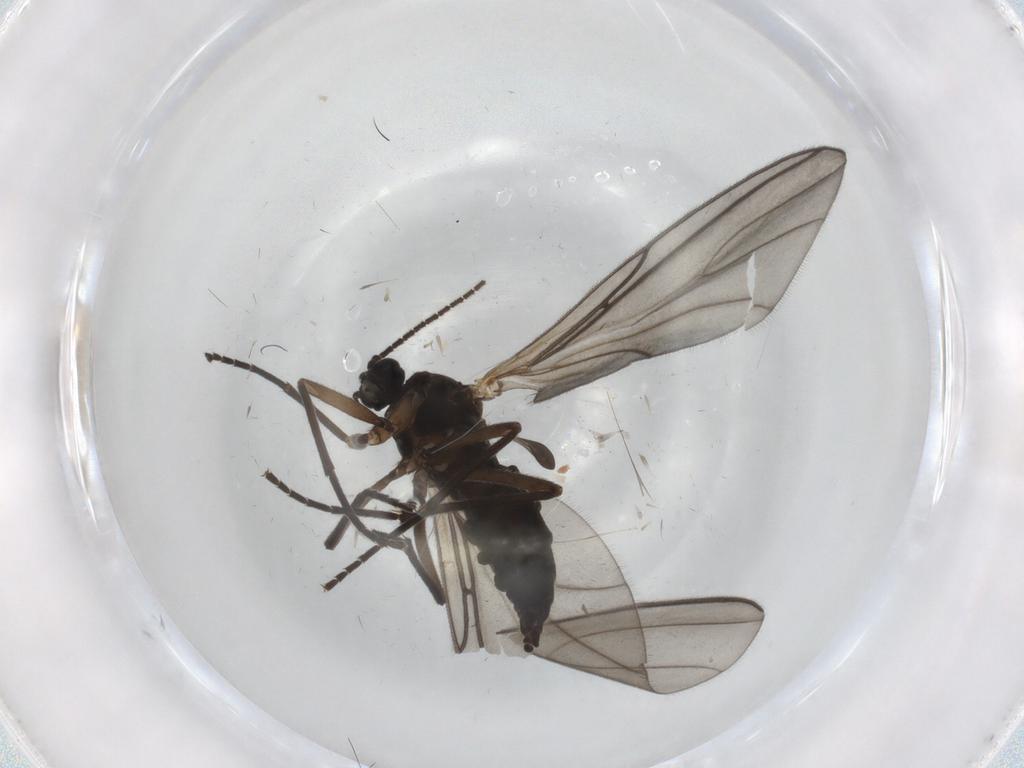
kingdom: Animalia
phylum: Arthropoda
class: Insecta
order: Diptera
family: Sciaridae
